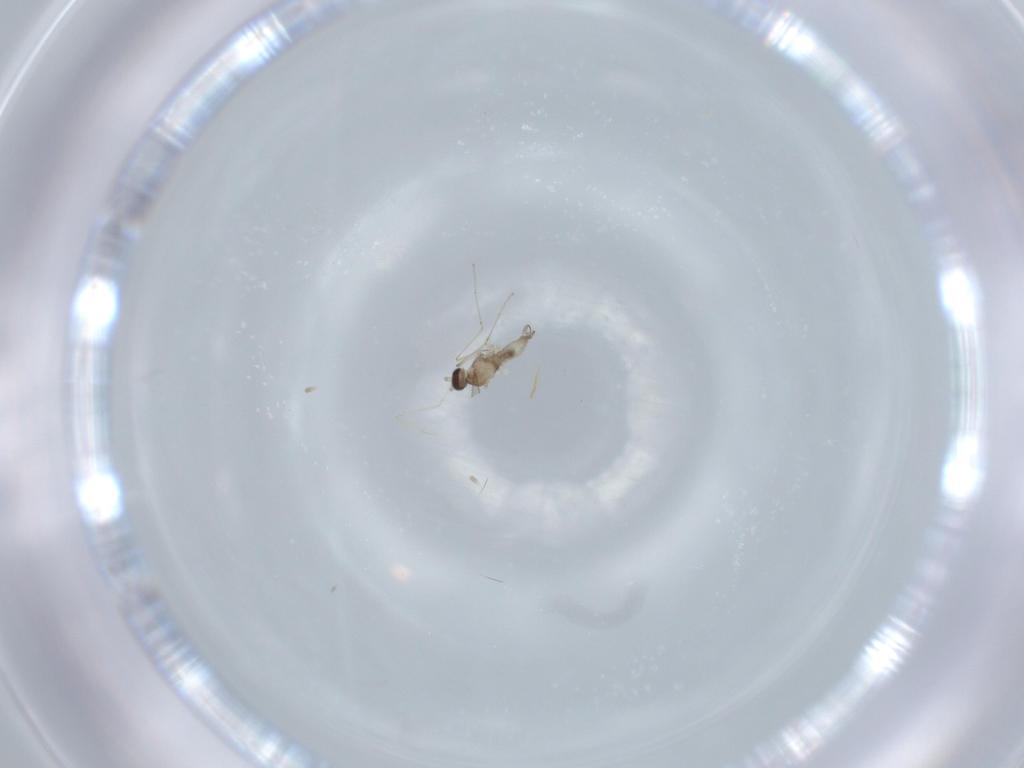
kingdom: Animalia
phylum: Arthropoda
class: Insecta
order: Diptera
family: Cecidomyiidae
